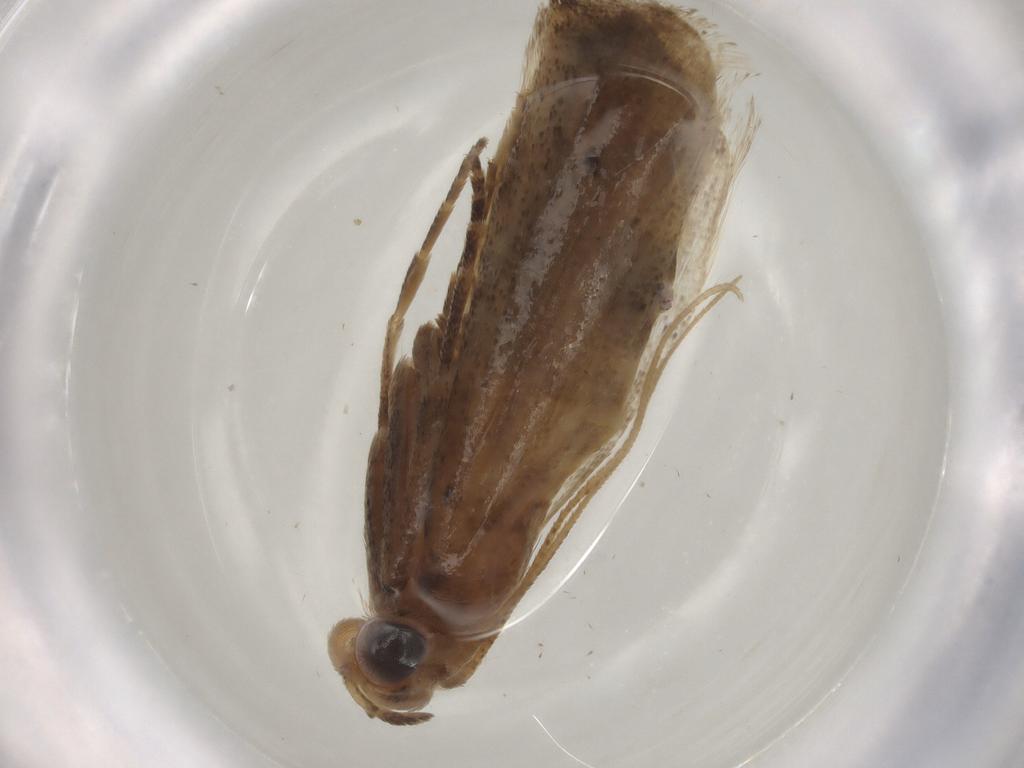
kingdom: Animalia
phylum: Arthropoda
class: Insecta
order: Lepidoptera
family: Pyralidae
